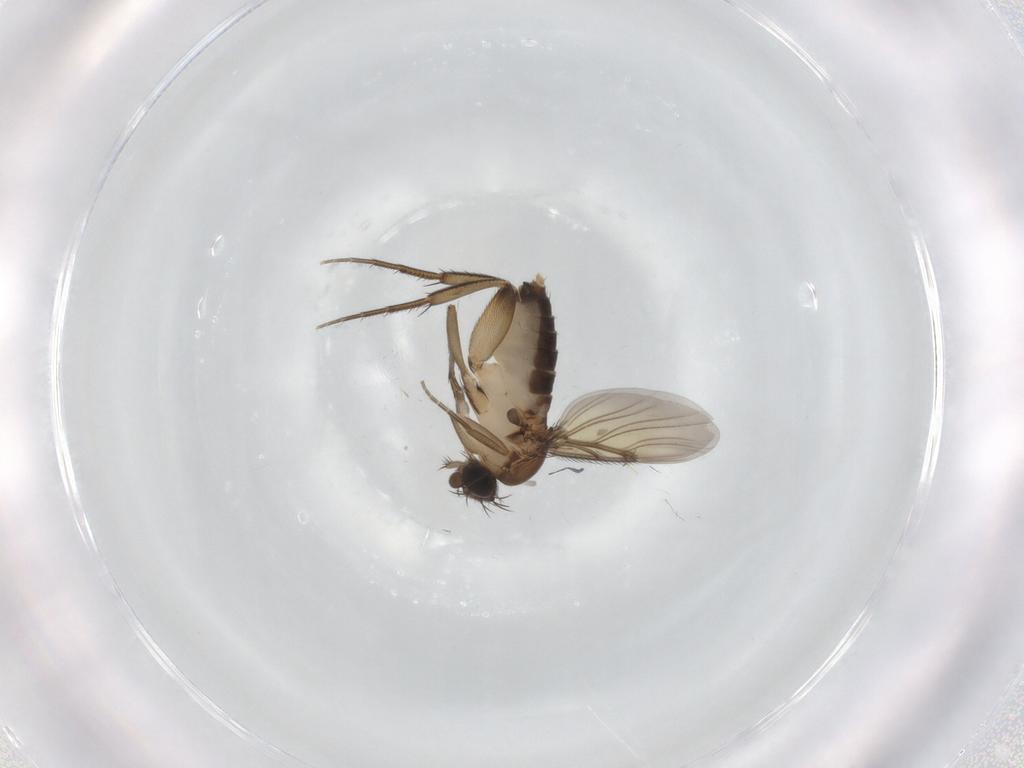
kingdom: Animalia
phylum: Arthropoda
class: Insecta
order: Diptera
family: Phoridae
